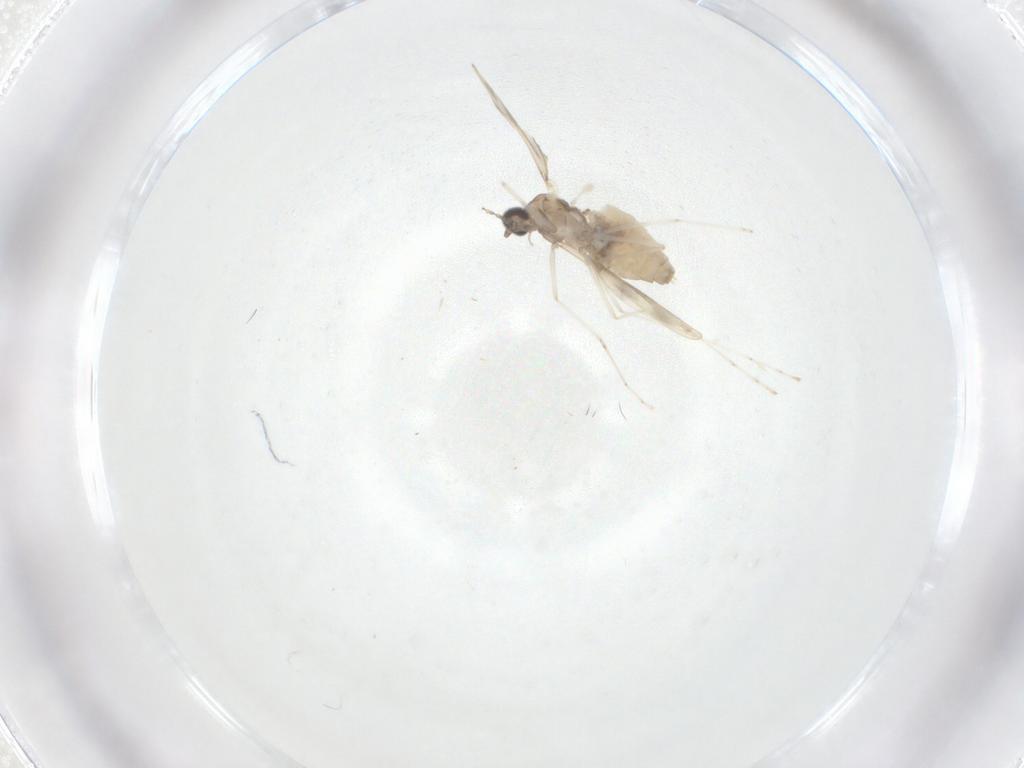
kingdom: Animalia
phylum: Arthropoda
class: Insecta
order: Diptera
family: Cecidomyiidae
